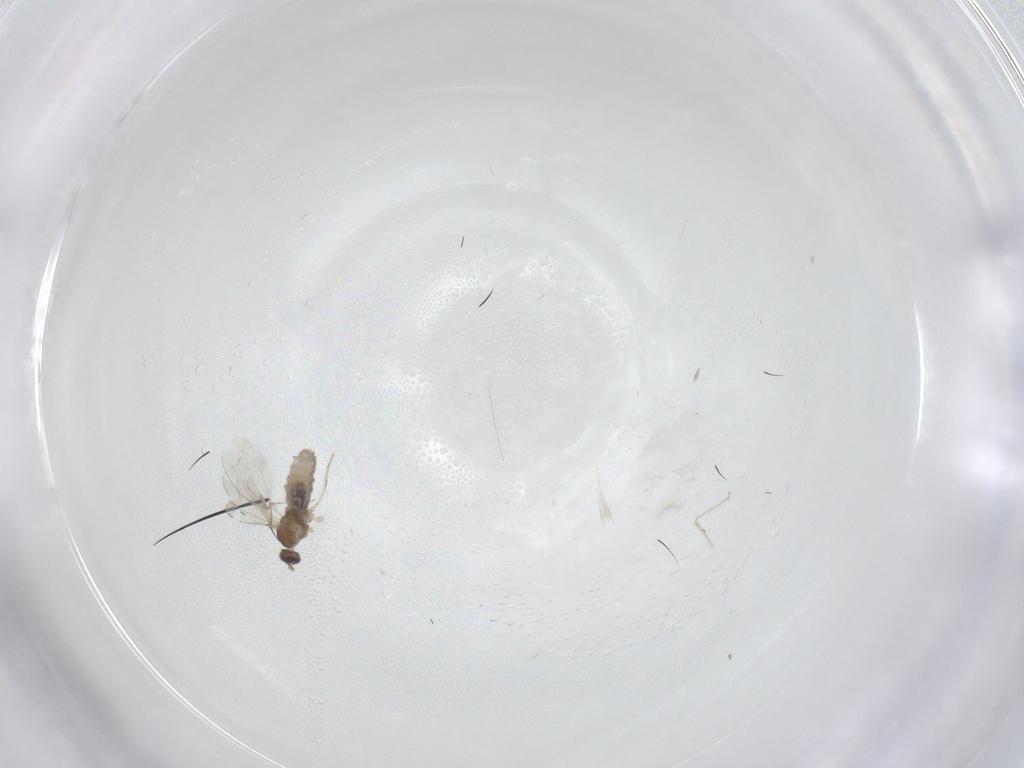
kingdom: Animalia
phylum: Arthropoda
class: Insecta
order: Diptera
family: Cecidomyiidae
